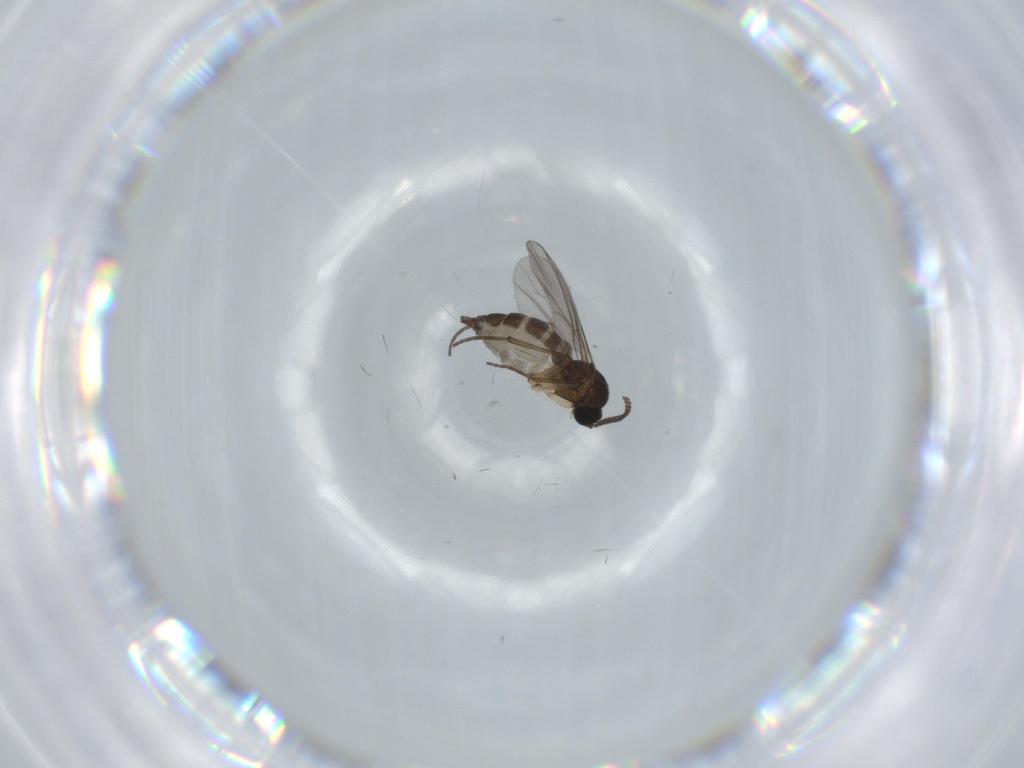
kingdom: Animalia
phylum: Arthropoda
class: Insecta
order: Diptera
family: Sciaridae
